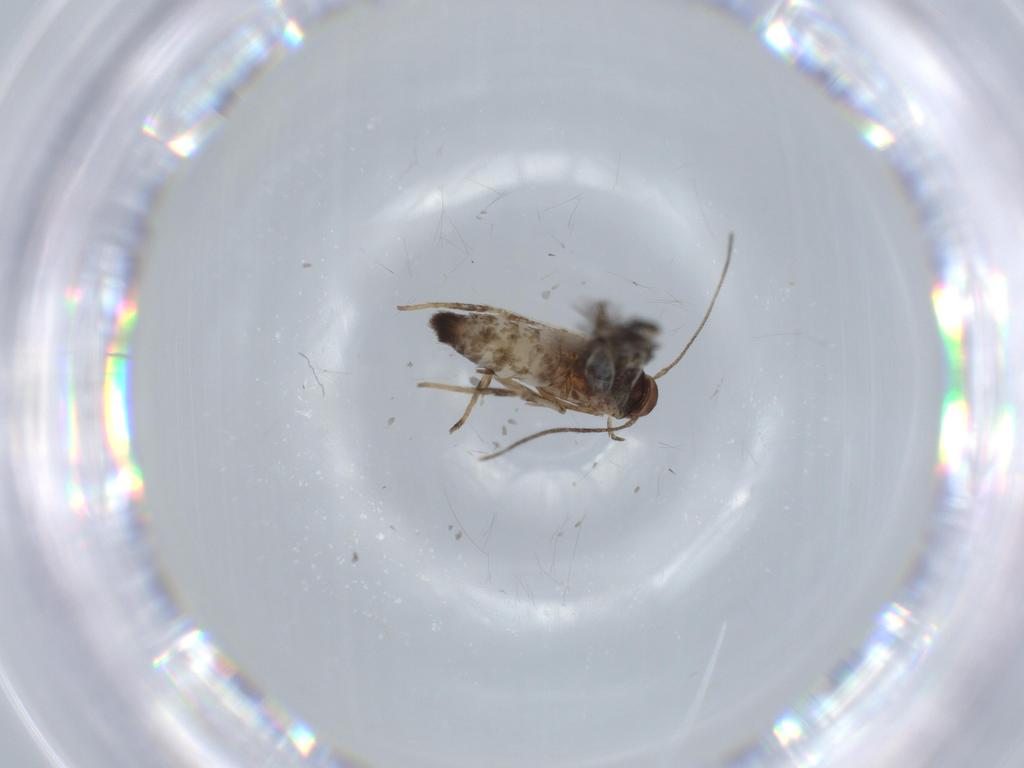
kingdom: Animalia
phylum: Arthropoda
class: Insecta
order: Lepidoptera
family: Cosmopterigidae
